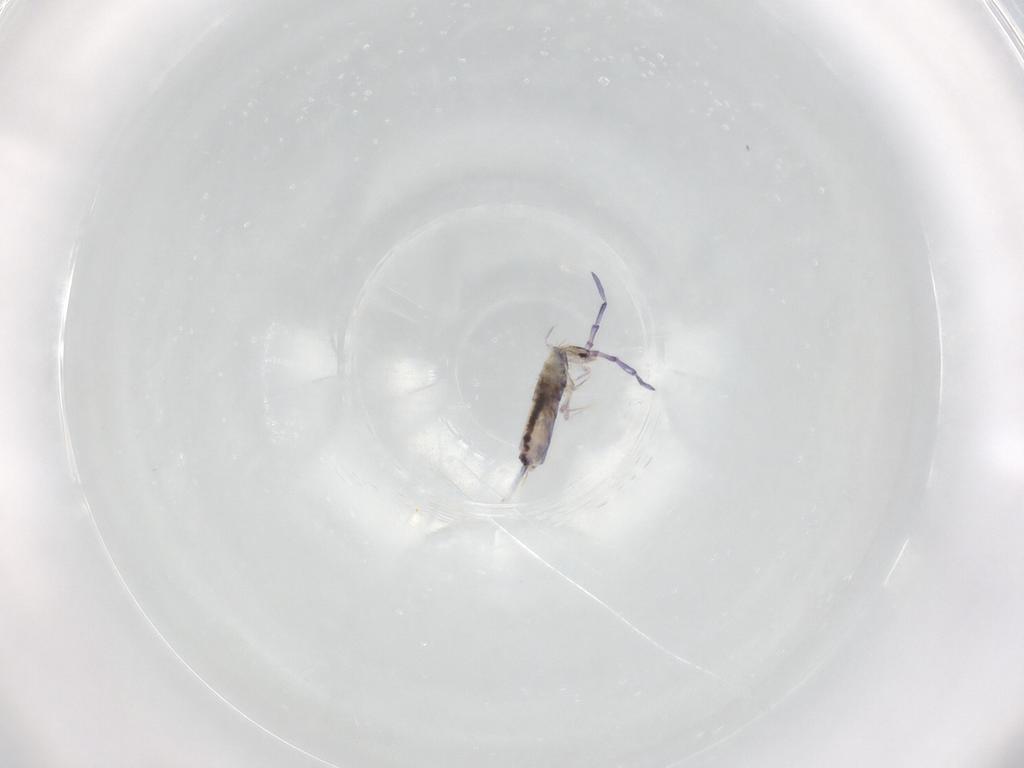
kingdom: Animalia
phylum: Arthropoda
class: Collembola
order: Entomobryomorpha
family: Entomobryidae
